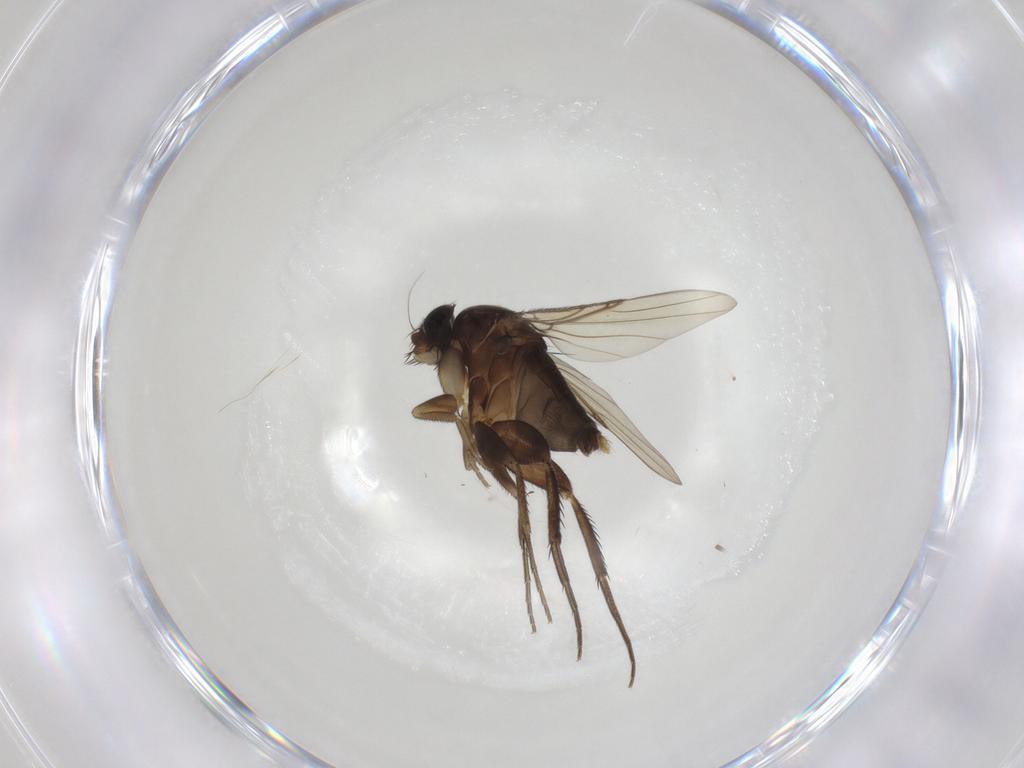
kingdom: Animalia
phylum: Arthropoda
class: Insecta
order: Diptera
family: Phoridae
